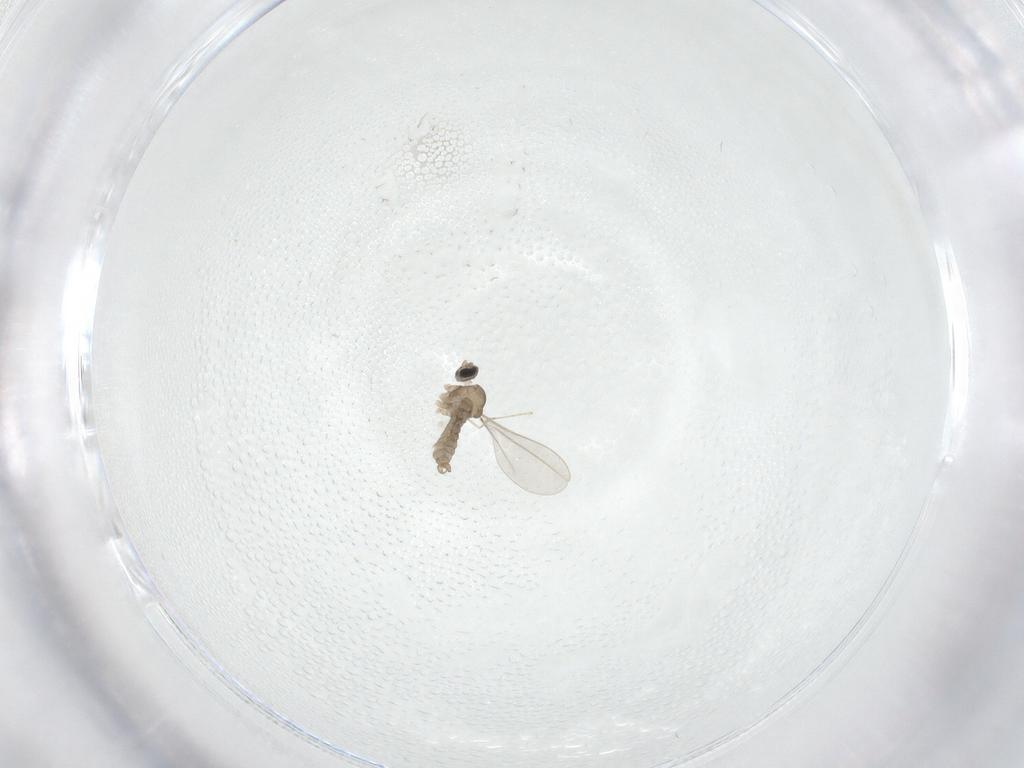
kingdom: Animalia
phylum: Arthropoda
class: Insecta
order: Diptera
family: Cecidomyiidae
